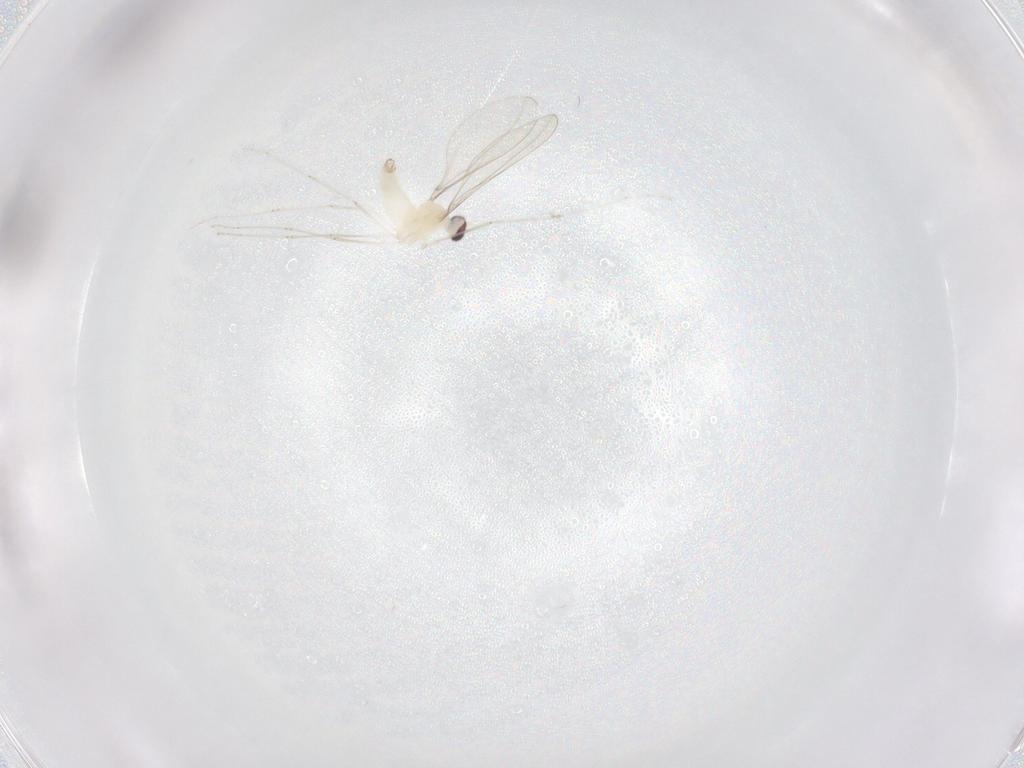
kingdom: Animalia
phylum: Arthropoda
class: Insecta
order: Diptera
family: Cecidomyiidae
